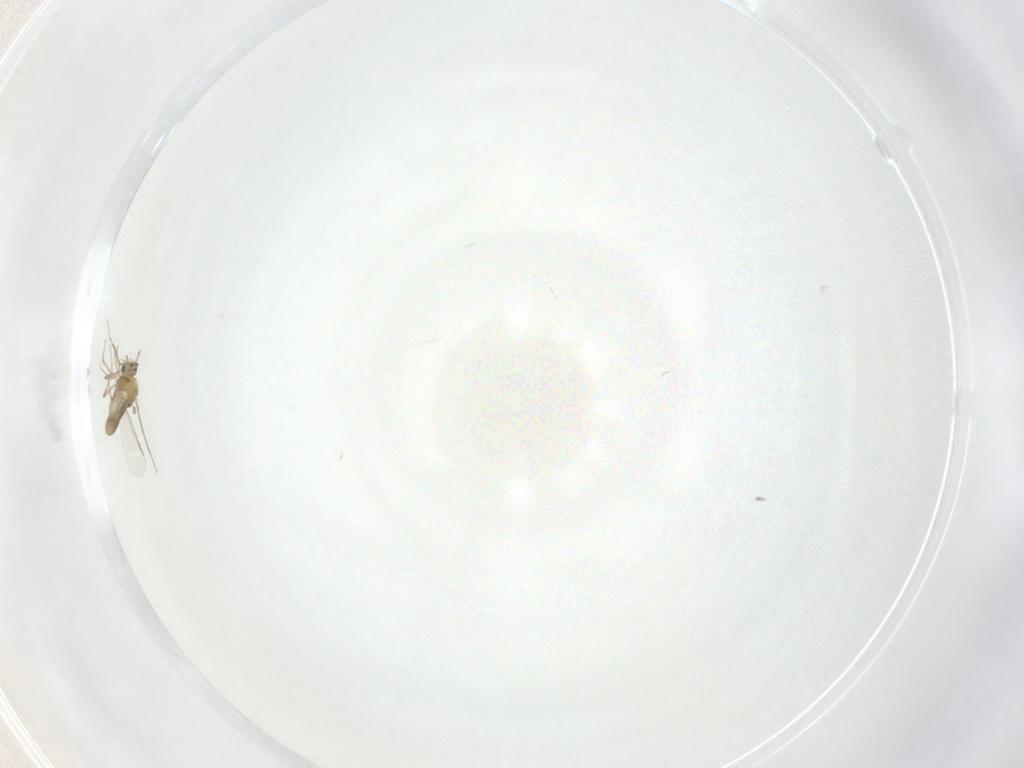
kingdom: Animalia
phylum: Arthropoda
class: Insecta
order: Diptera
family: Chironomidae
